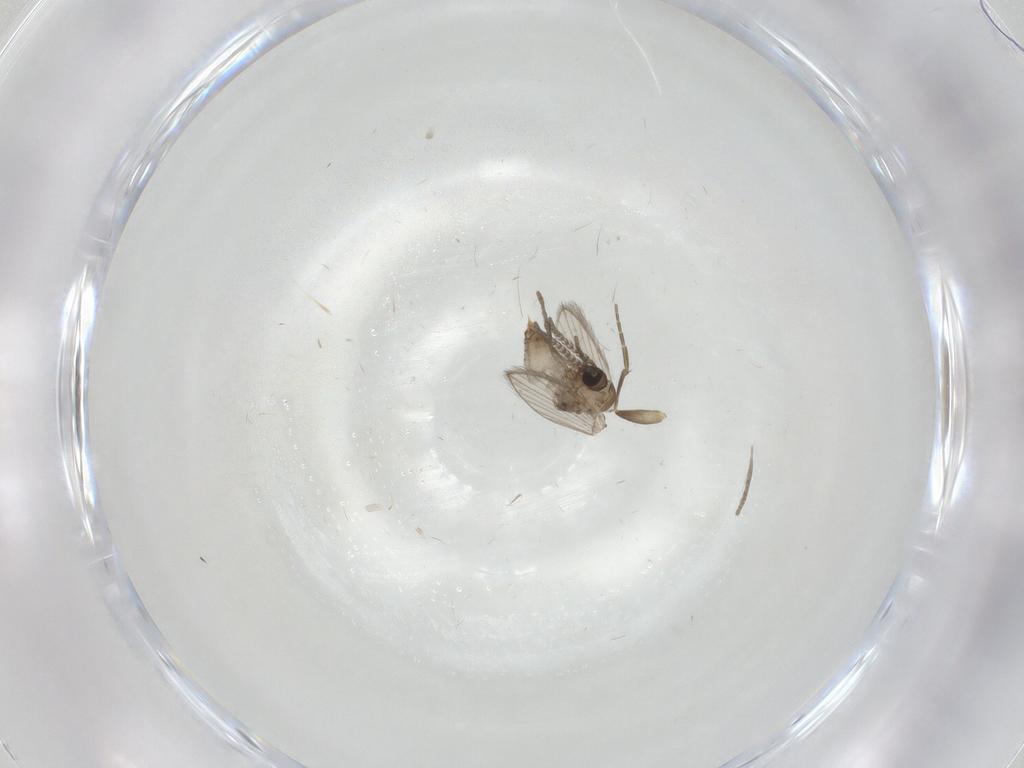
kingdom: Animalia
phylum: Arthropoda
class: Insecta
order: Diptera
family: Psychodidae
